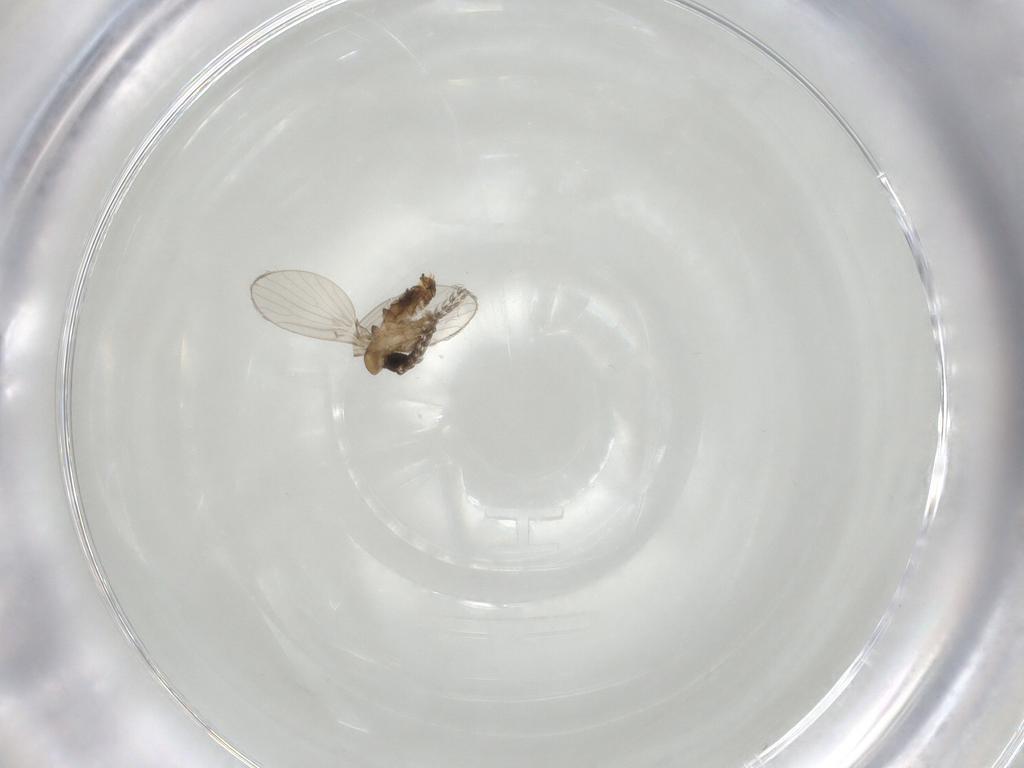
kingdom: Animalia
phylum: Arthropoda
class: Insecta
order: Diptera
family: Psychodidae
